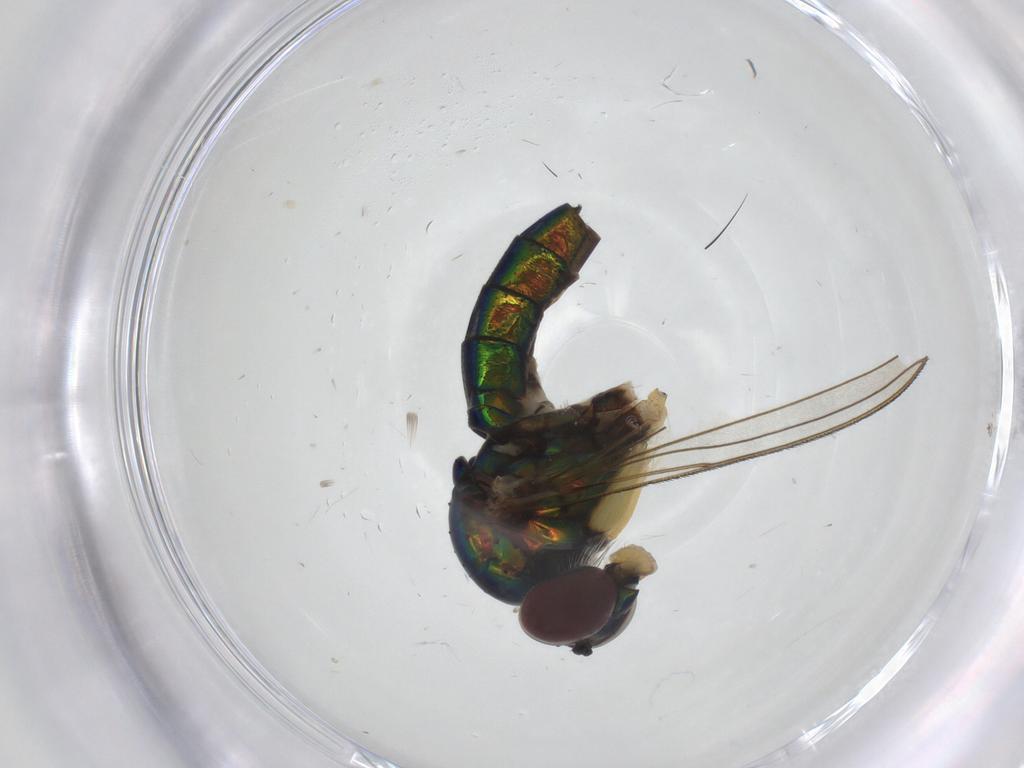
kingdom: Animalia
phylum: Arthropoda
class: Insecta
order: Diptera
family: Dolichopodidae
